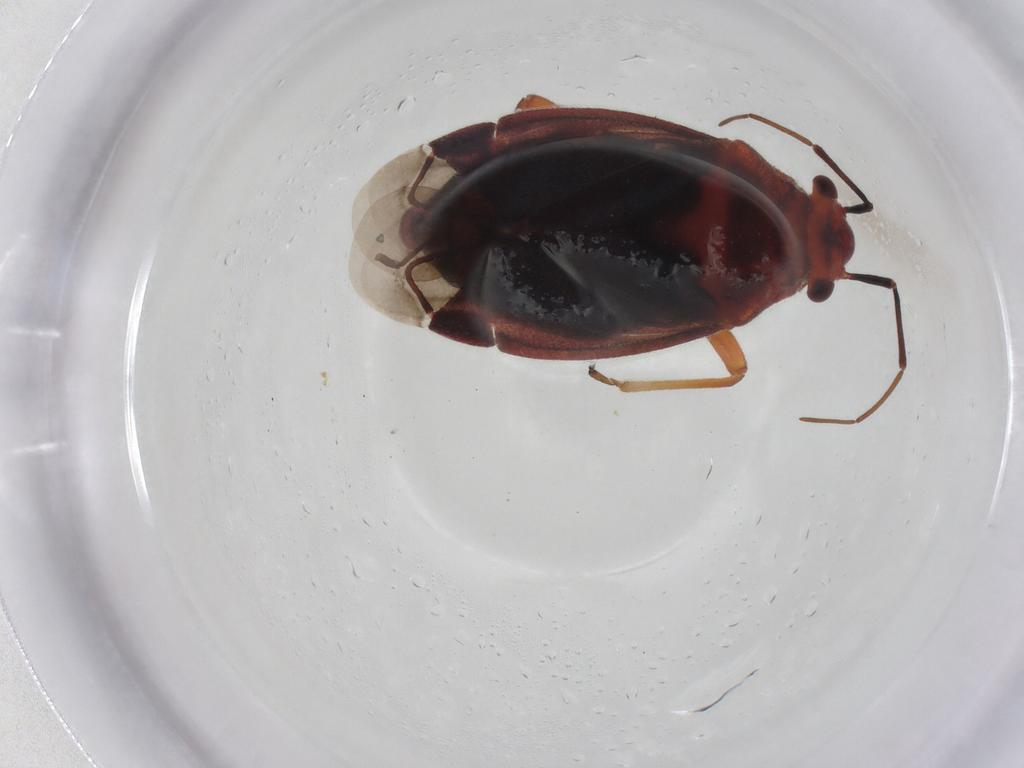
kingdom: Animalia
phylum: Arthropoda
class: Insecta
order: Hemiptera
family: Miridae
